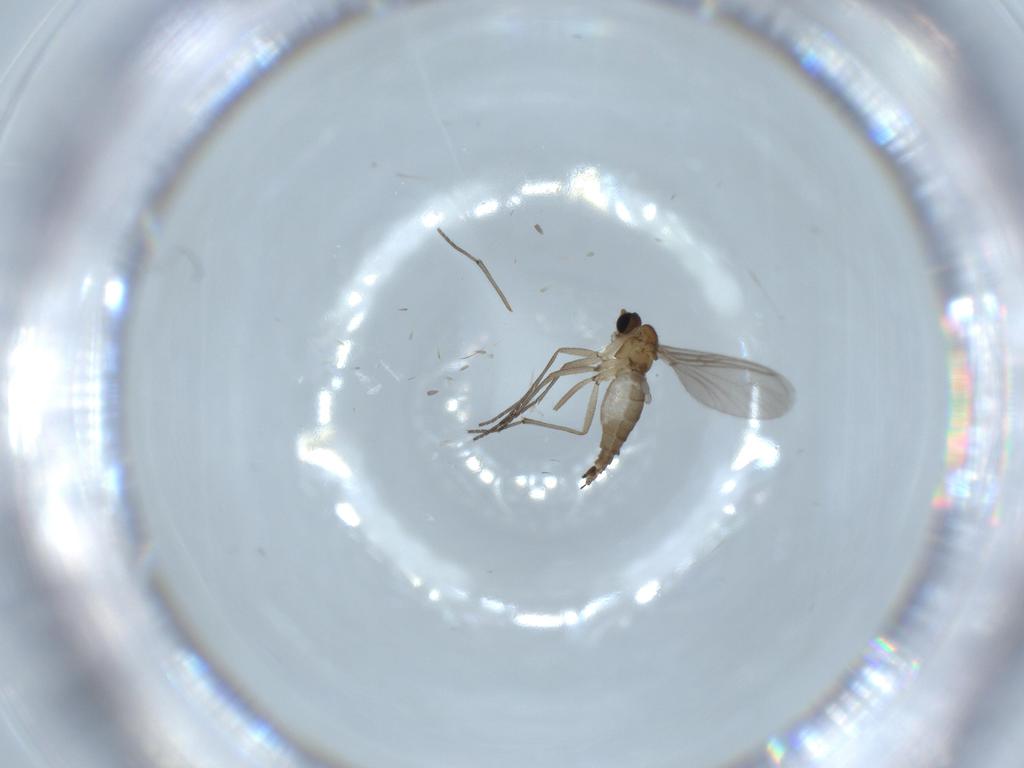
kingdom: Animalia
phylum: Arthropoda
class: Insecta
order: Diptera
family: Sciaridae
